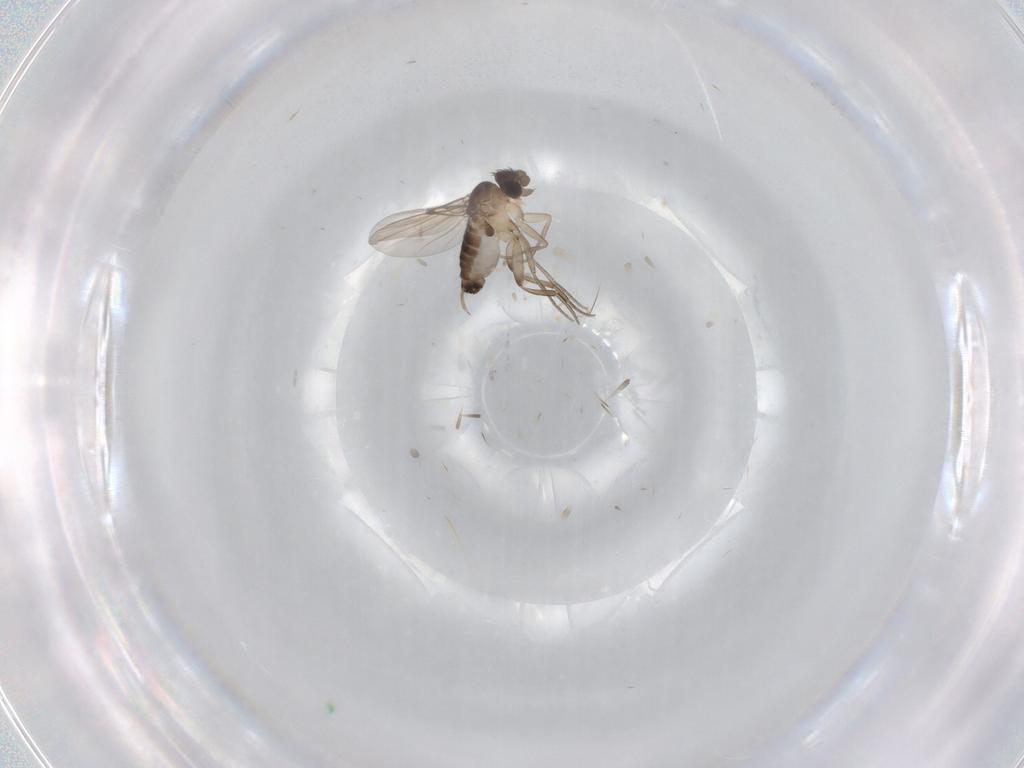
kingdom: Animalia
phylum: Arthropoda
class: Insecta
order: Diptera
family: Phoridae
